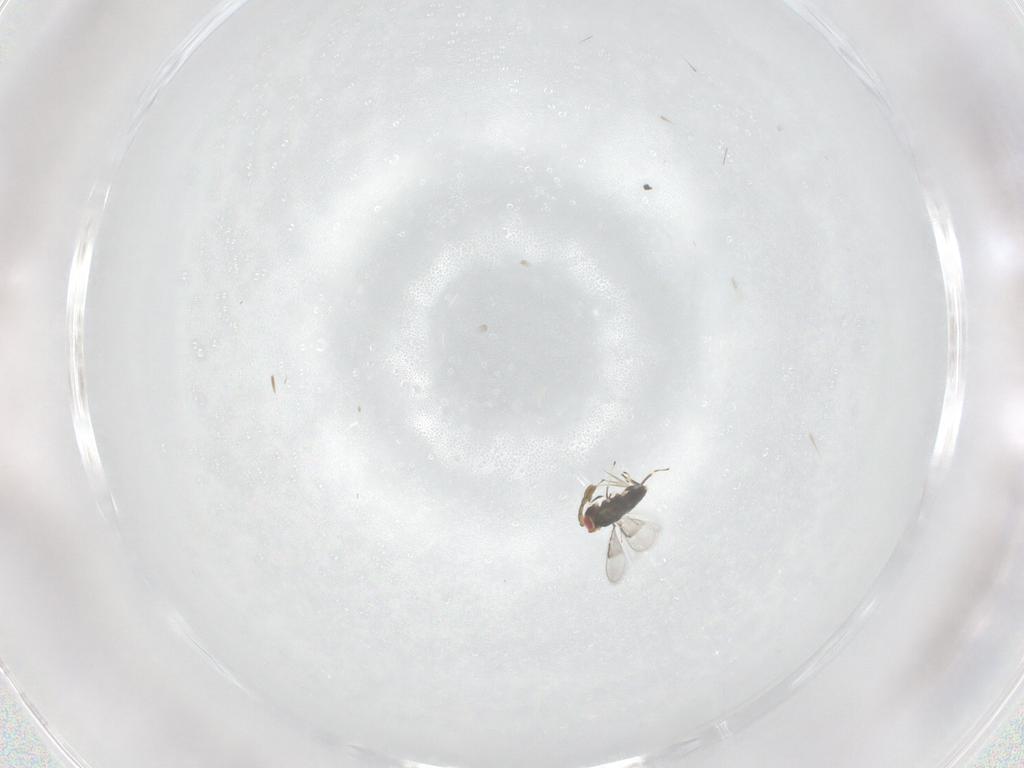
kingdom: Animalia
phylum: Arthropoda
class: Insecta
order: Hymenoptera
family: Azotidae
